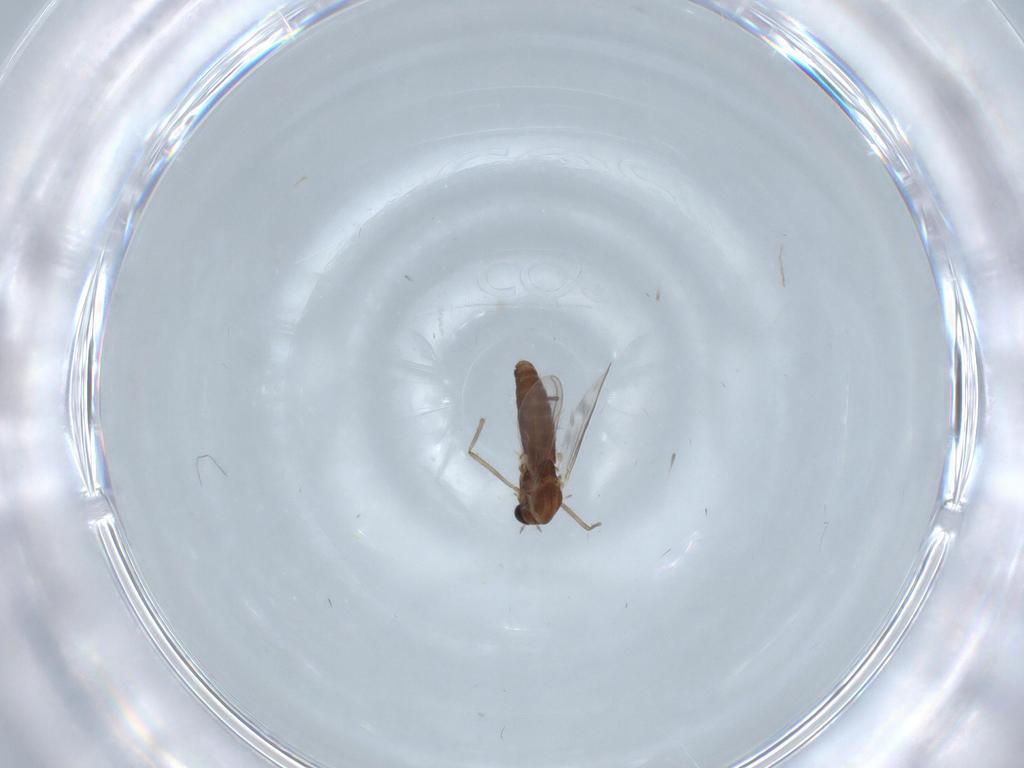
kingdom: Animalia
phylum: Arthropoda
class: Insecta
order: Diptera
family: Chironomidae
